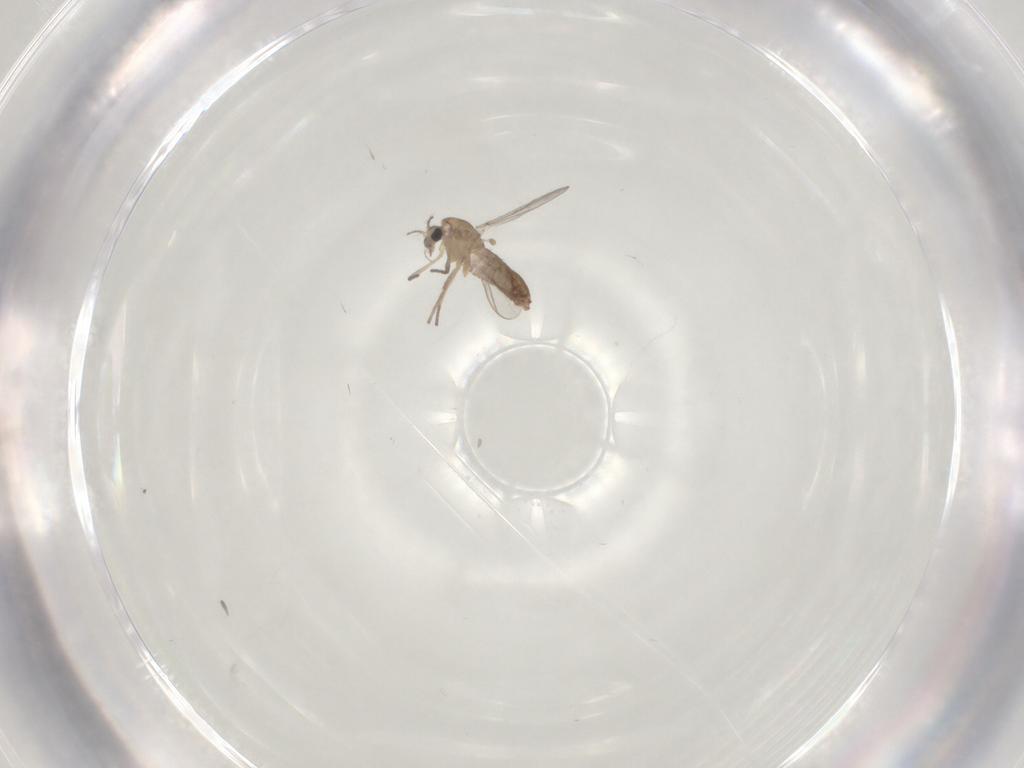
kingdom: Animalia
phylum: Arthropoda
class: Insecta
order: Diptera
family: Chironomidae
